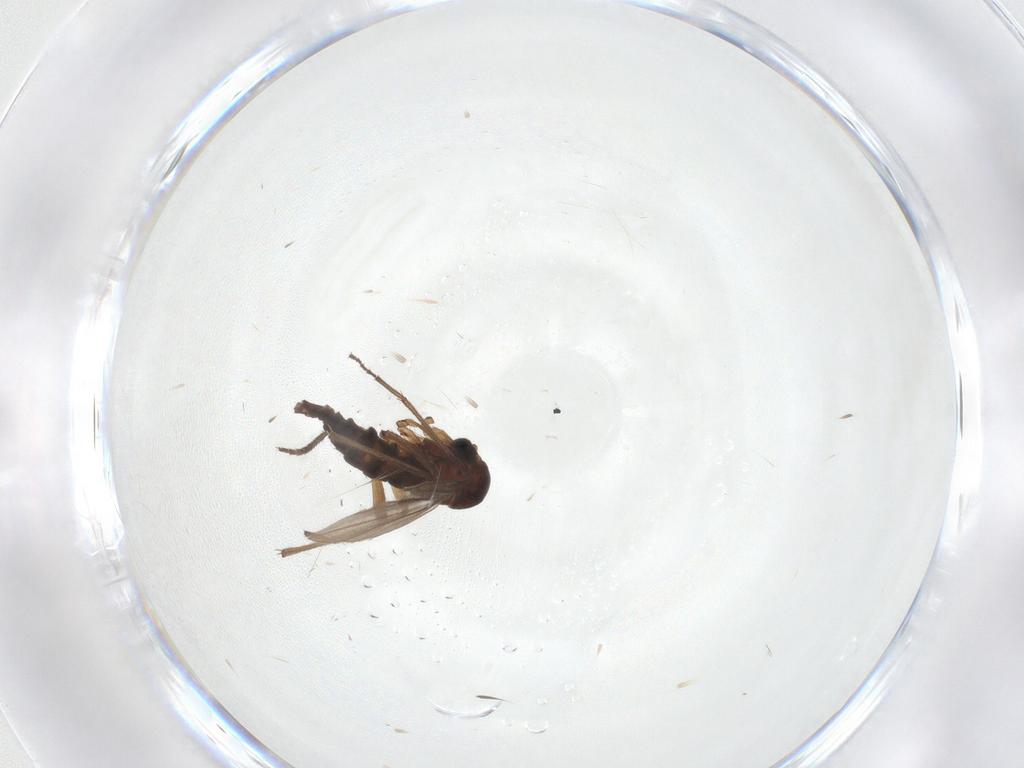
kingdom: Animalia
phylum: Arthropoda
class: Insecta
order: Diptera
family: Sciaridae
